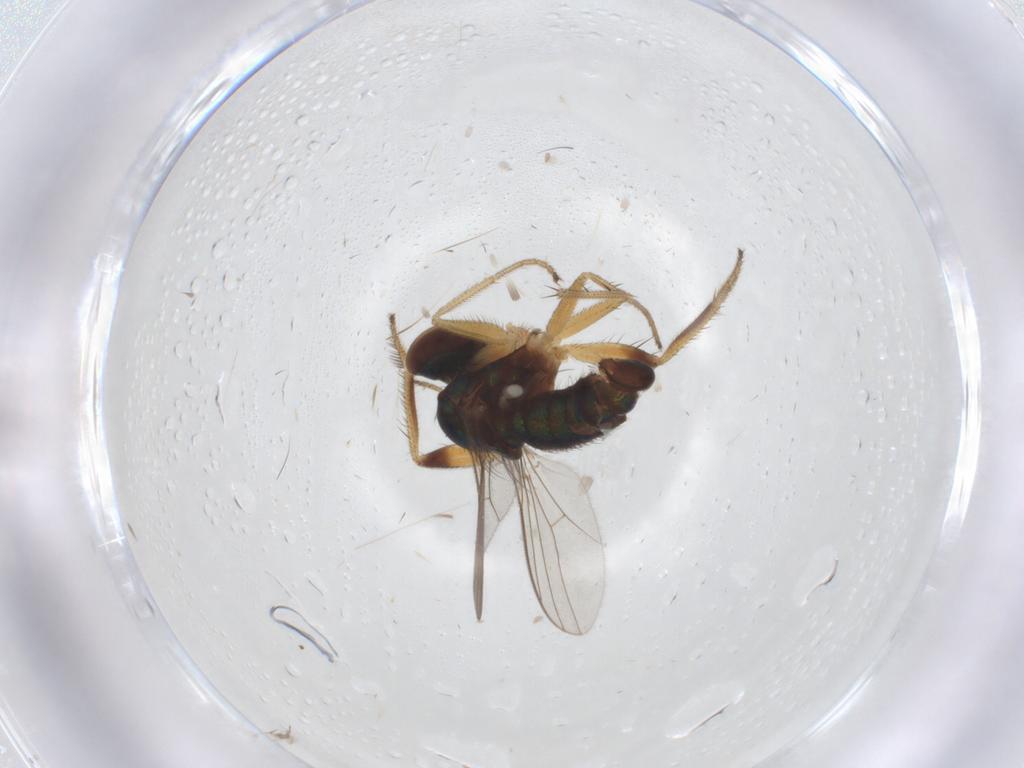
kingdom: Animalia
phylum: Arthropoda
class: Insecta
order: Diptera
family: Dolichopodidae
